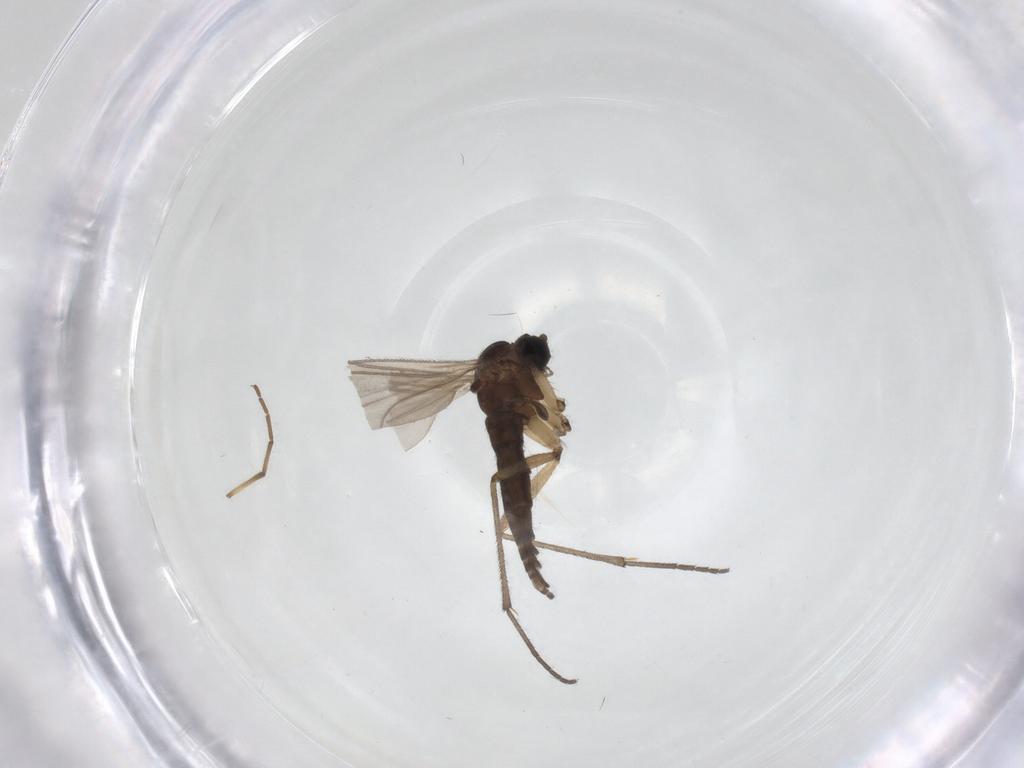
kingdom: Animalia
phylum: Arthropoda
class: Insecta
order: Diptera
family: Sciaridae
